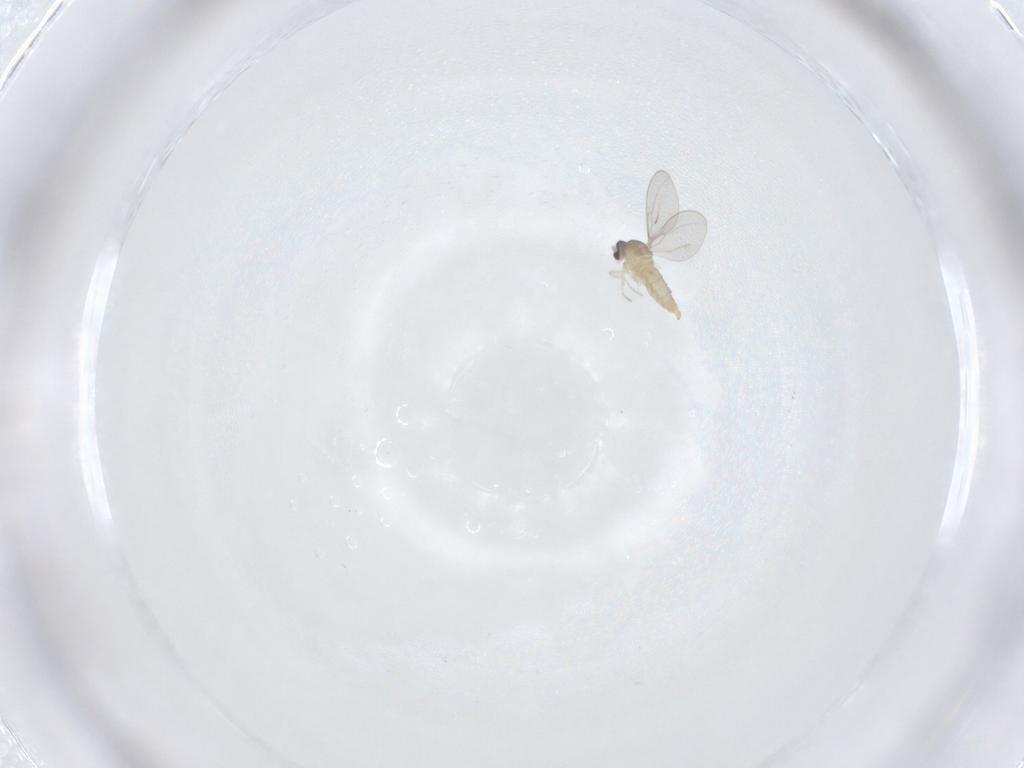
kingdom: Animalia
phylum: Arthropoda
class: Insecta
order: Diptera
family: Cecidomyiidae
